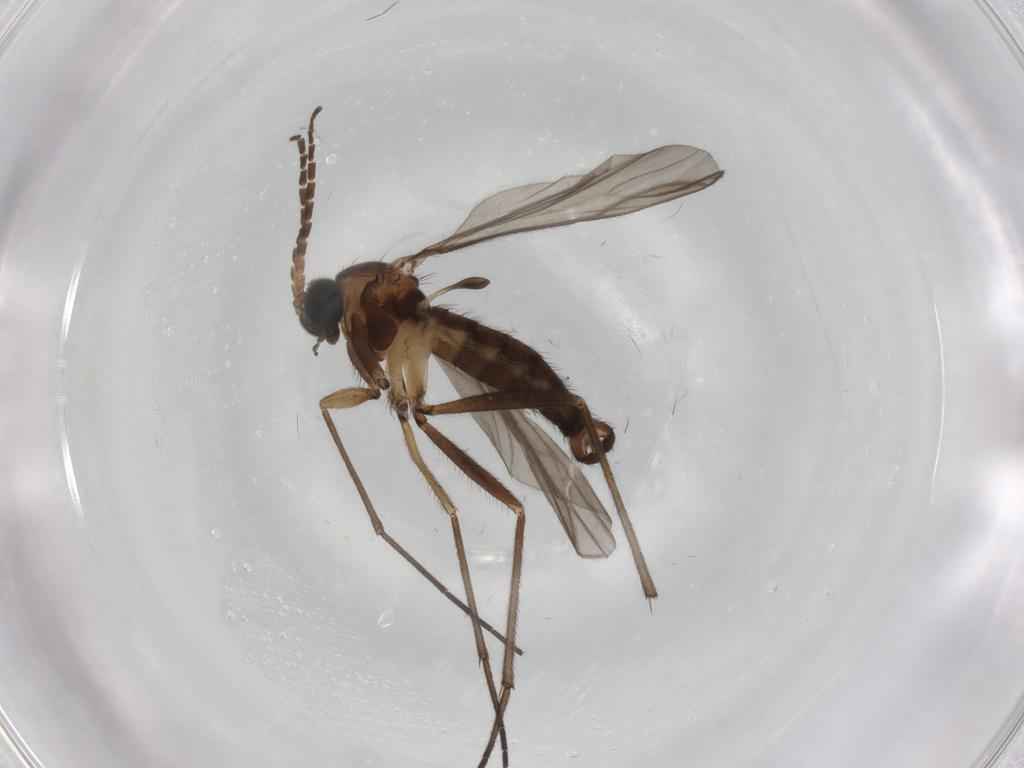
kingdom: Animalia
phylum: Arthropoda
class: Insecta
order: Diptera
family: Sciaridae
